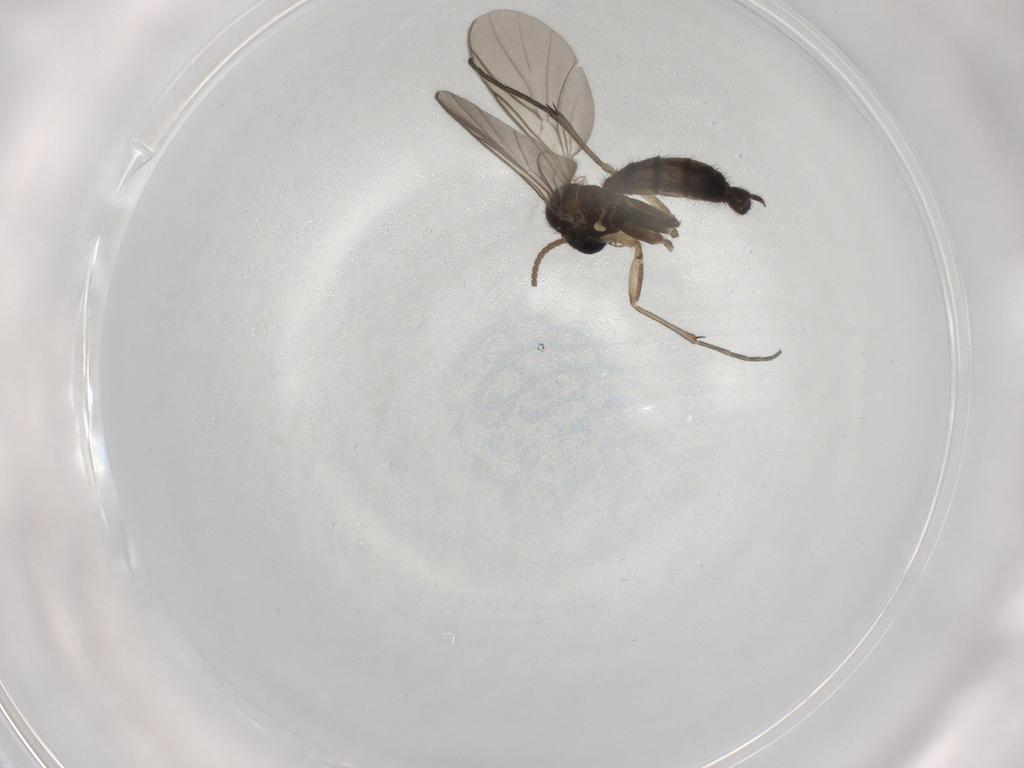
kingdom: Animalia
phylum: Arthropoda
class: Insecta
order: Diptera
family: Keroplatidae
